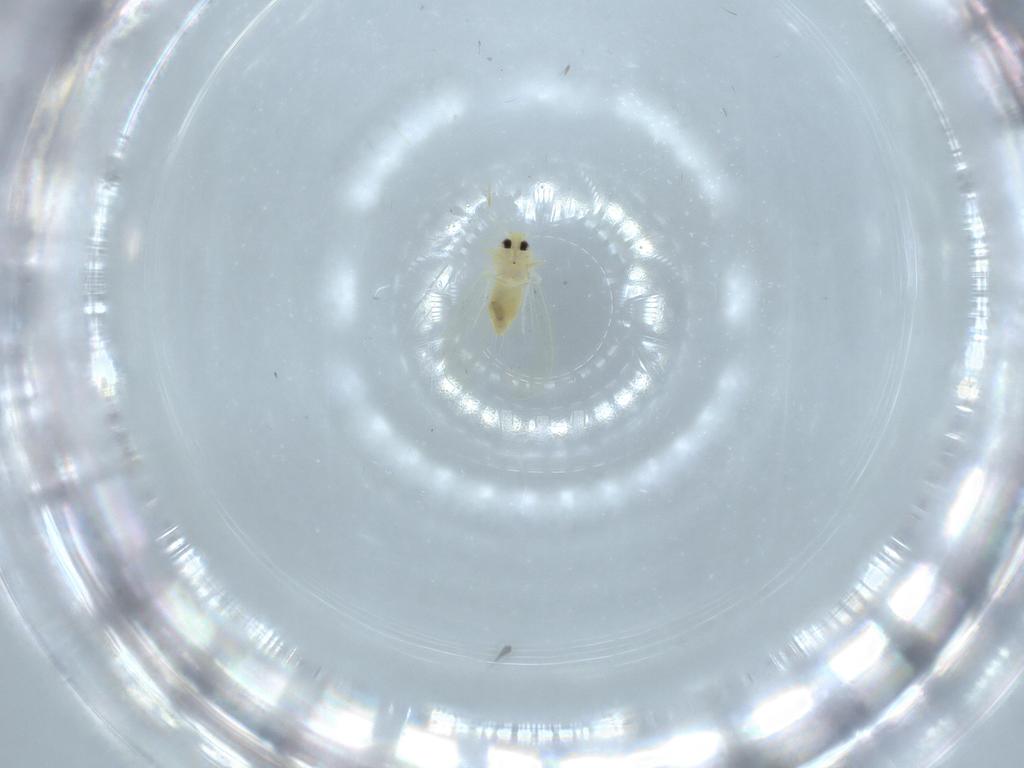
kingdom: Animalia
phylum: Arthropoda
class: Insecta
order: Hemiptera
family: Aleyrodidae
